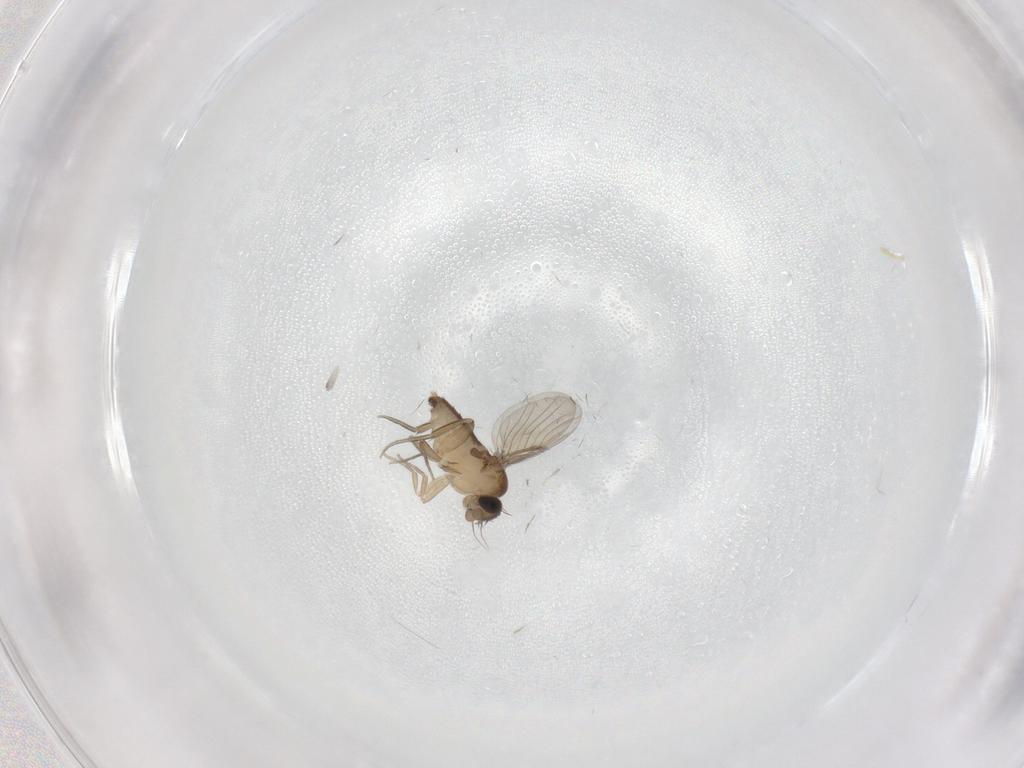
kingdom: Animalia
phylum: Arthropoda
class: Insecta
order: Diptera
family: Phoridae
